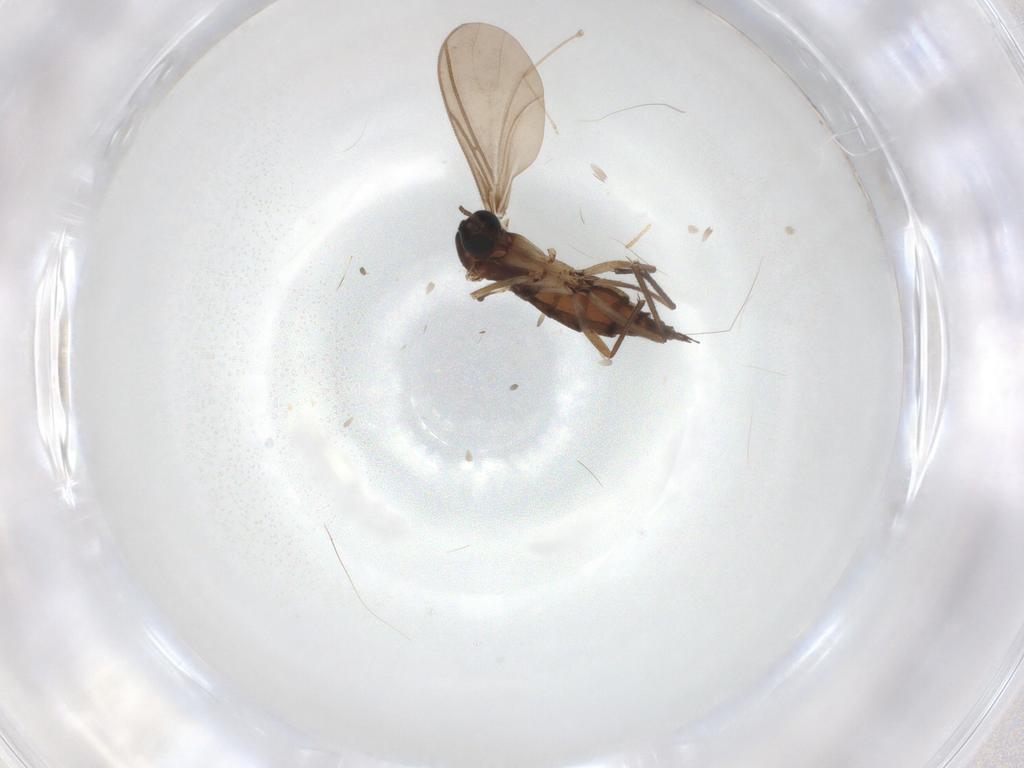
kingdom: Animalia
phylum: Arthropoda
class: Insecta
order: Diptera
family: Sciaridae
